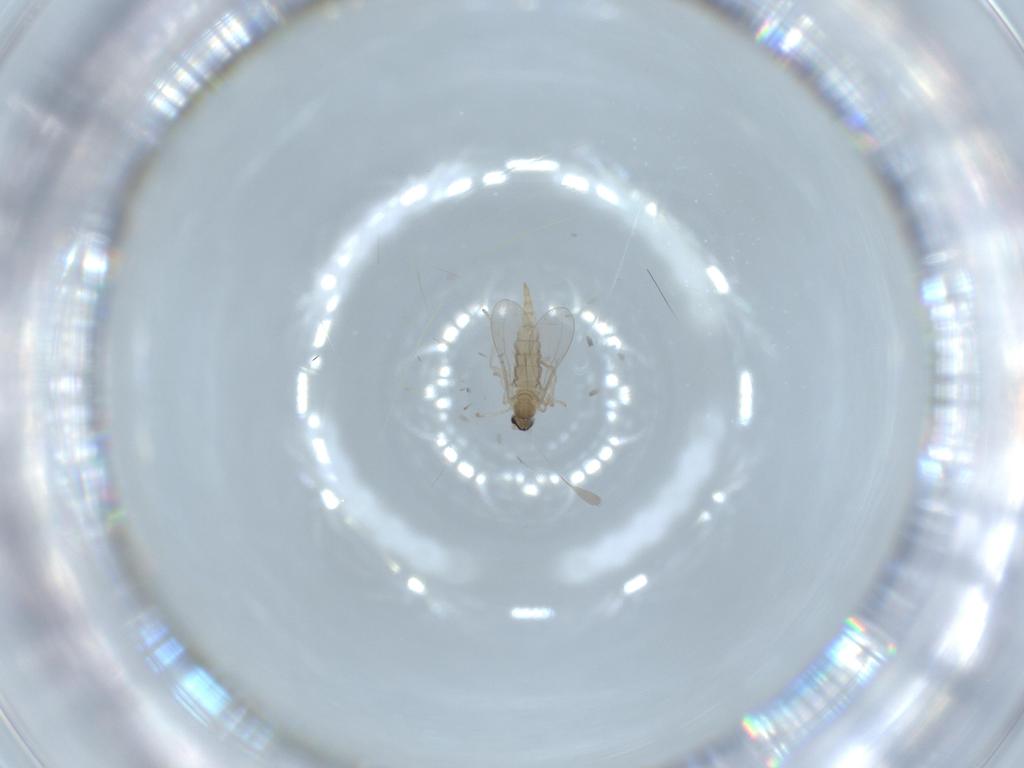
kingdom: Animalia
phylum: Arthropoda
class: Insecta
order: Diptera
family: Cecidomyiidae
